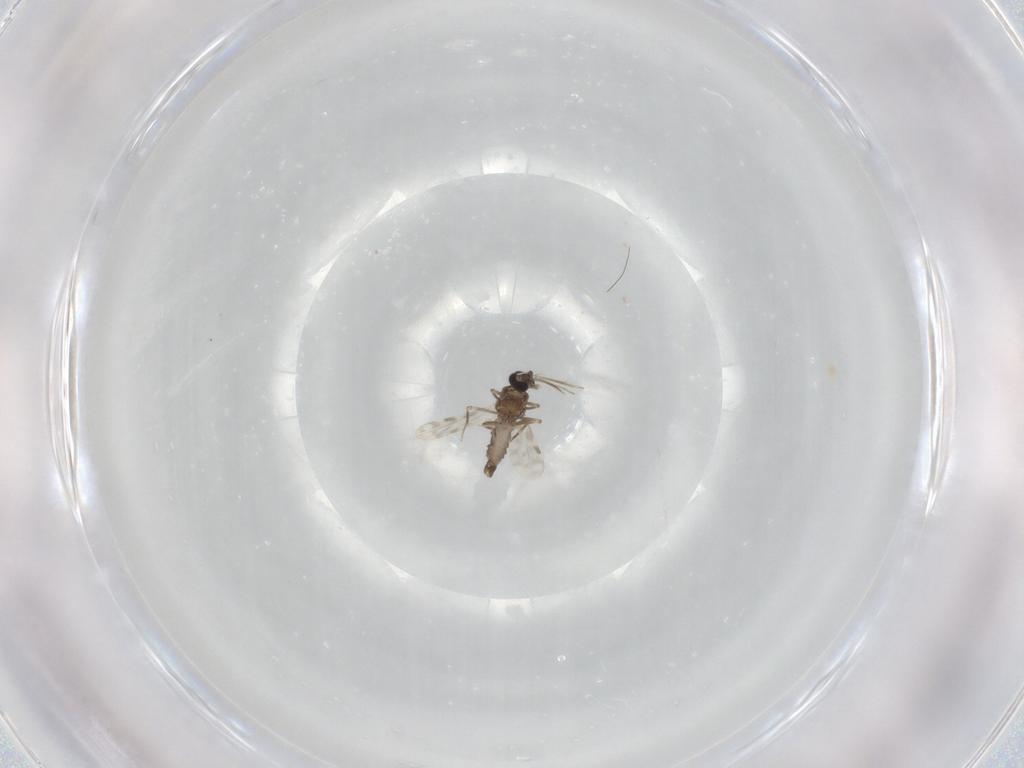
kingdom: Animalia
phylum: Arthropoda
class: Insecta
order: Diptera
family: Ceratopogonidae
